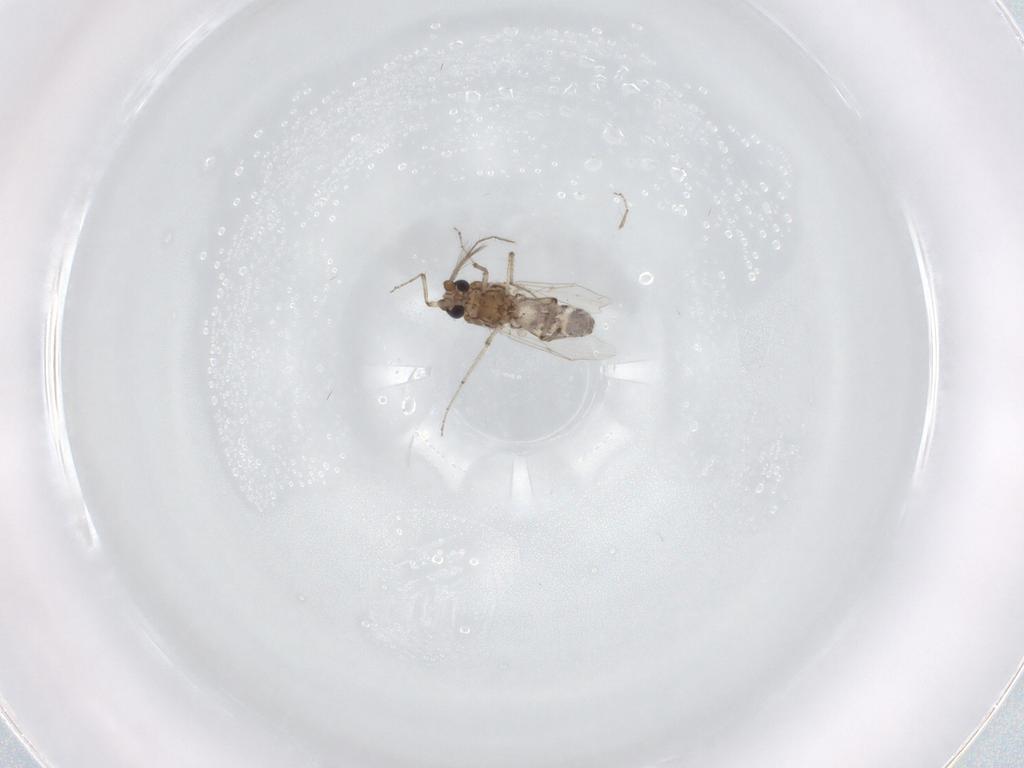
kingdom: Animalia
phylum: Arthropoda
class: Insecta
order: Diptera
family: Ceratopogonidae
